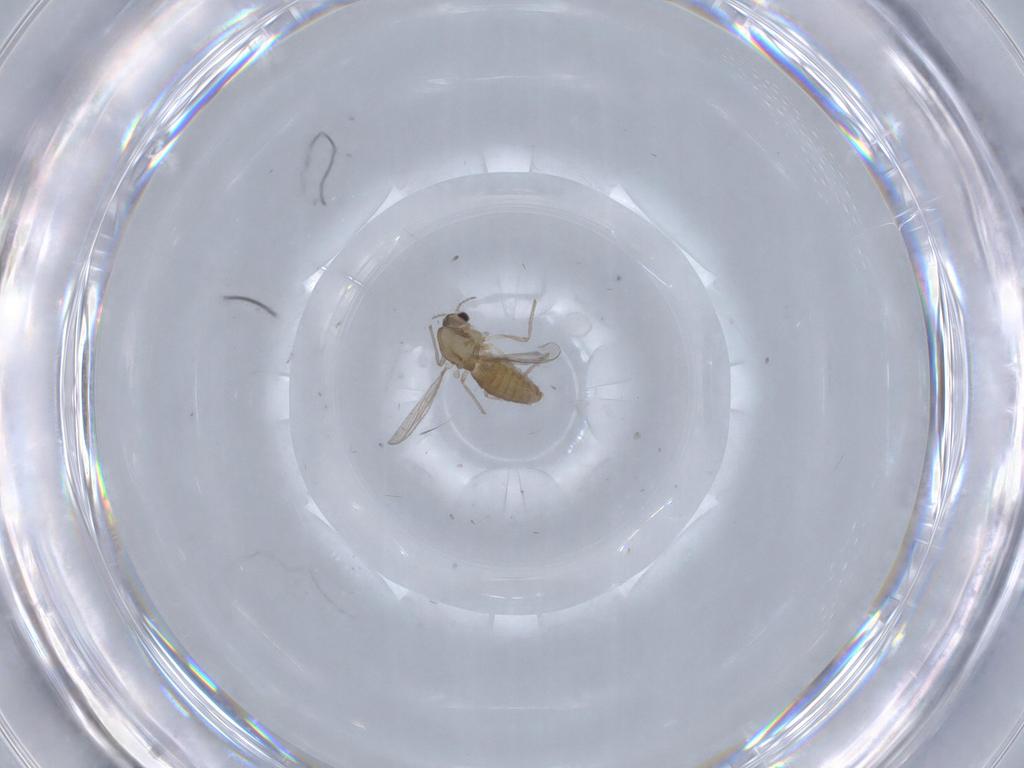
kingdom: Animalia
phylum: Arthropoda
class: Insecta
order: Diptera
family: Chironomidae
